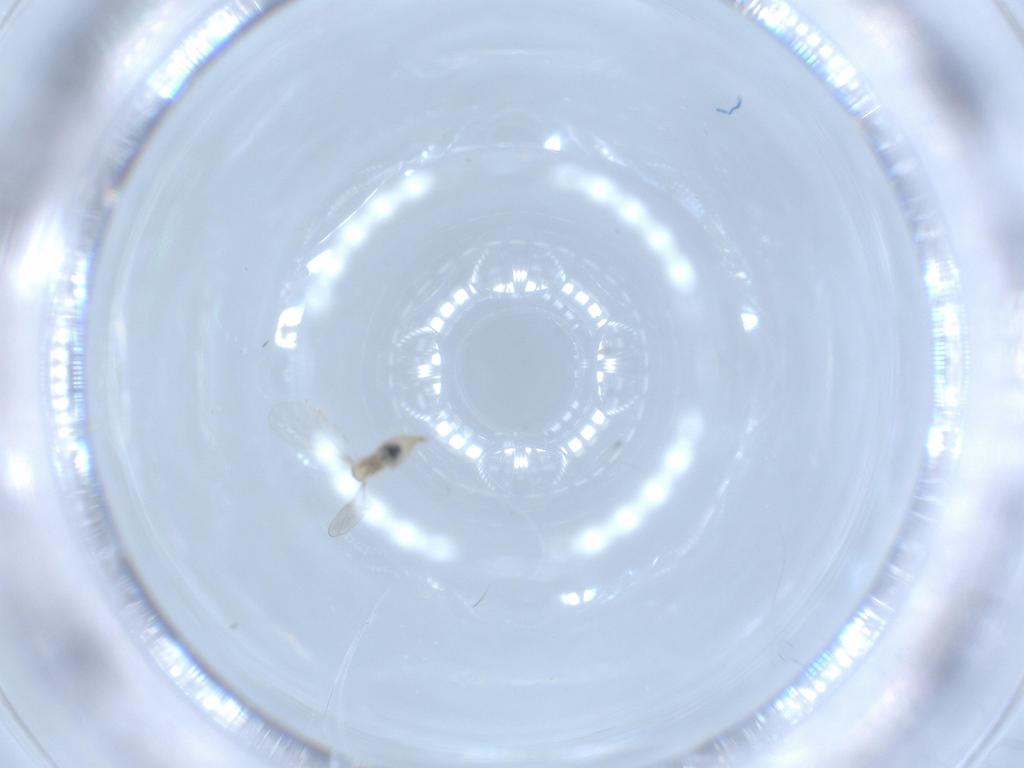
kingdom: Animalia
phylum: Arthropoda
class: Insecta
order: Diptera
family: Cecidomyiidae
